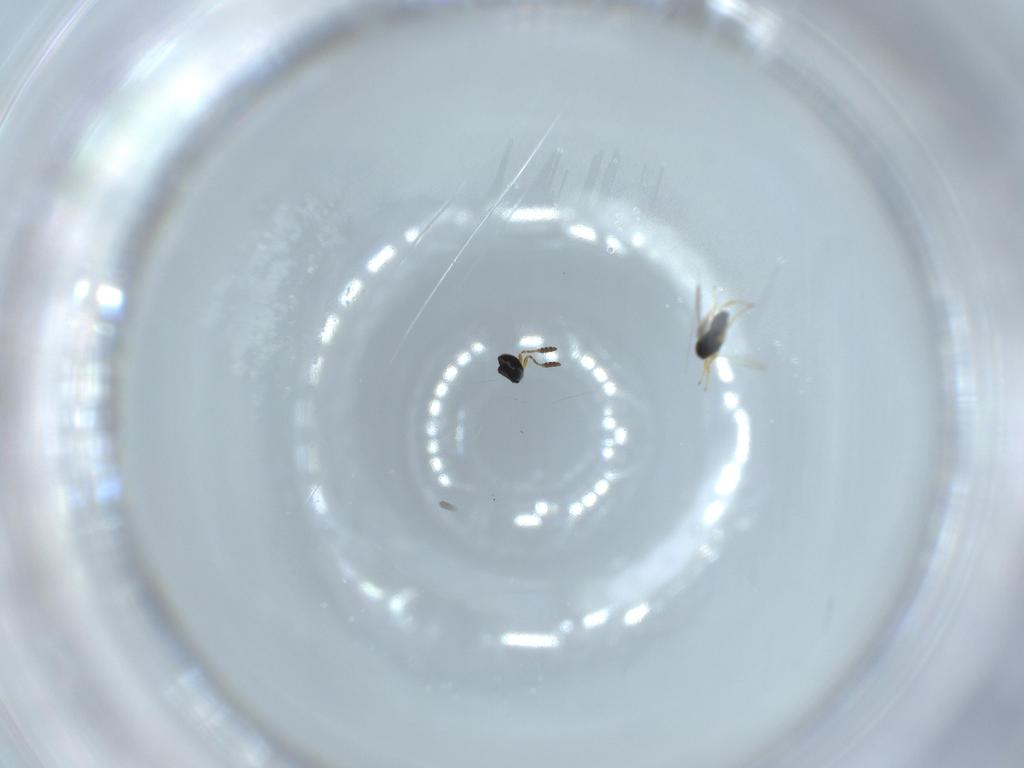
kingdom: Animalia
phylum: Arthropoda
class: Insecta
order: Hymenoptera
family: Scelionidae
